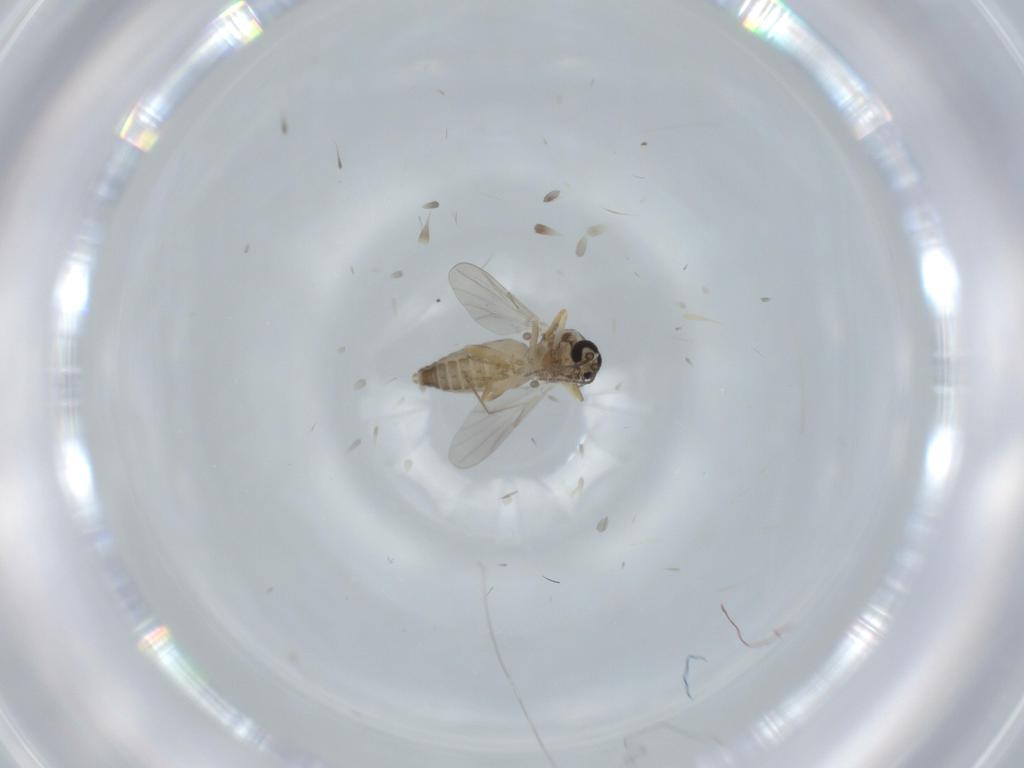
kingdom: Animalia
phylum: Arthropoda
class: Insecta
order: Diptera
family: Ceratopogonidae
